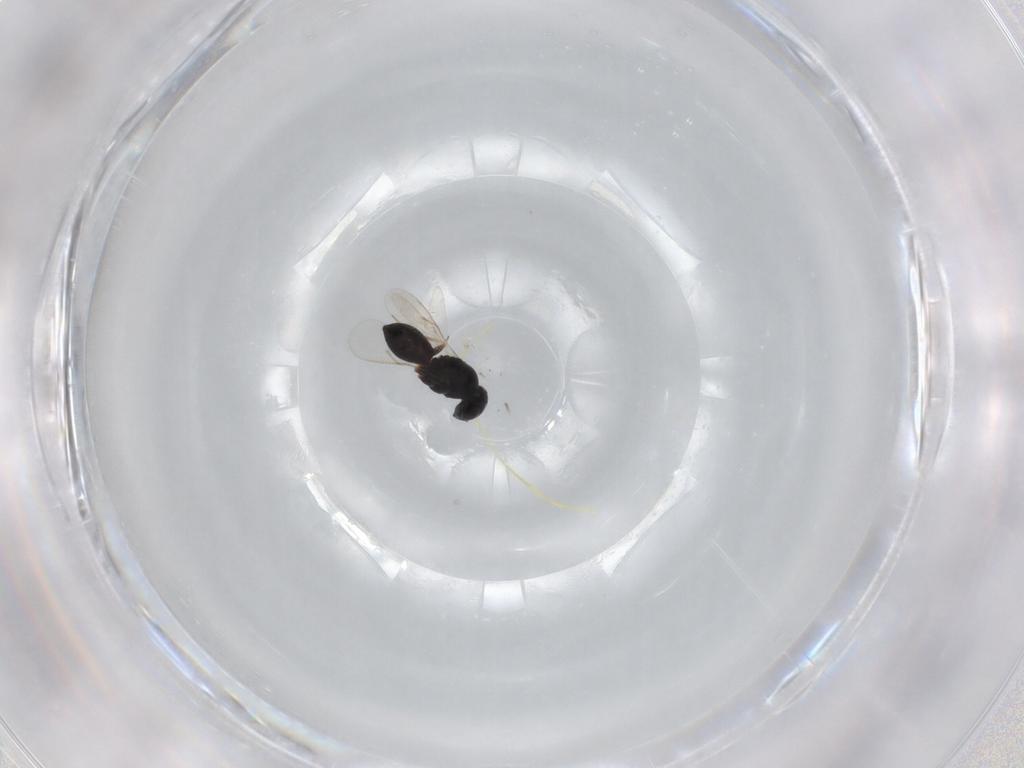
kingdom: Animalia
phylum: Arthropoda
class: Insecta
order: Hymenoptera
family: Scelionidae
